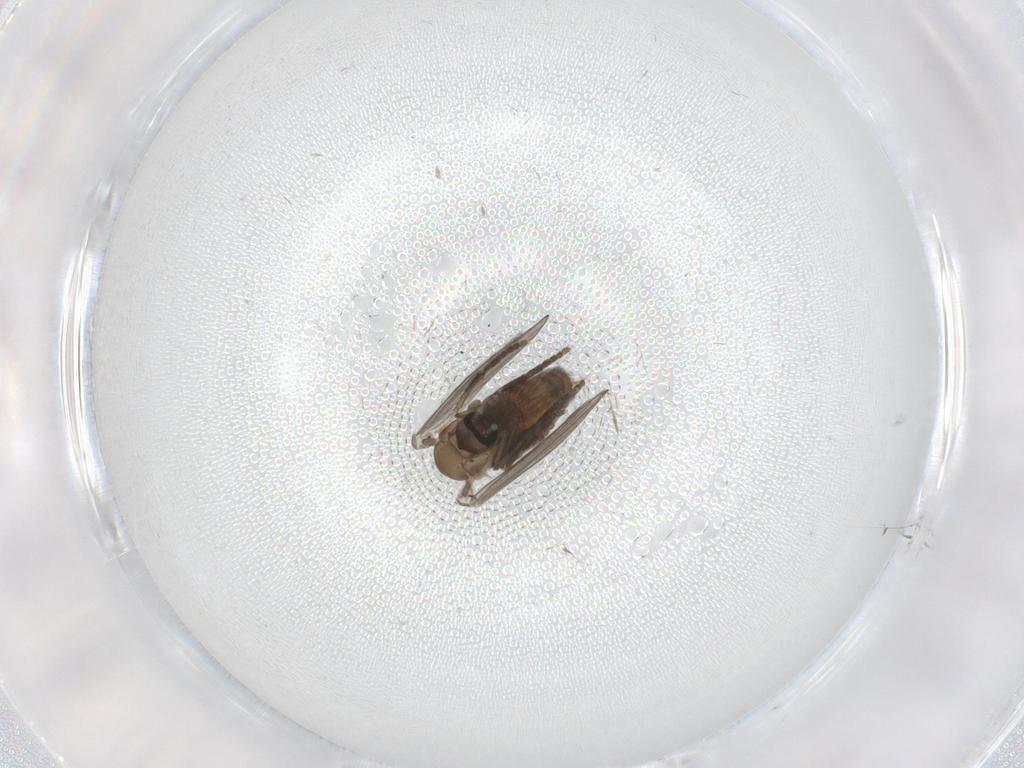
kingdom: Animalia
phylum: Arthropoda
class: Insecta
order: Diptera
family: Psychodidae
